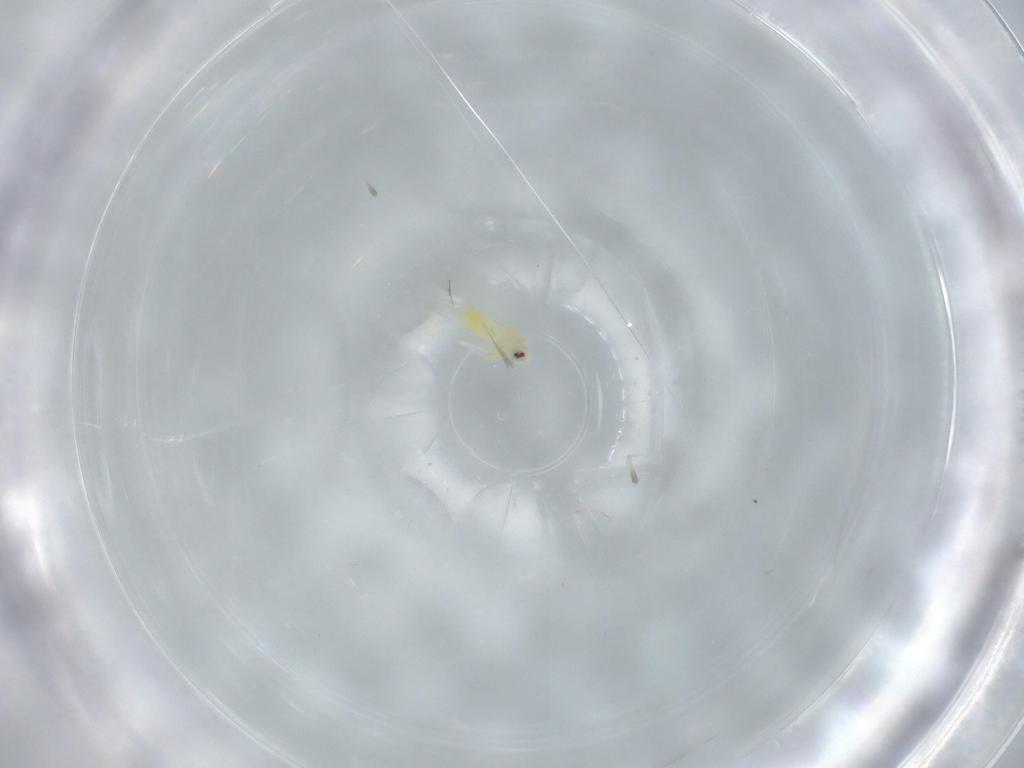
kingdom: Animalia
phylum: Arthropoda
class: Insecta
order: Hemiptera
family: Aleyrodidae
